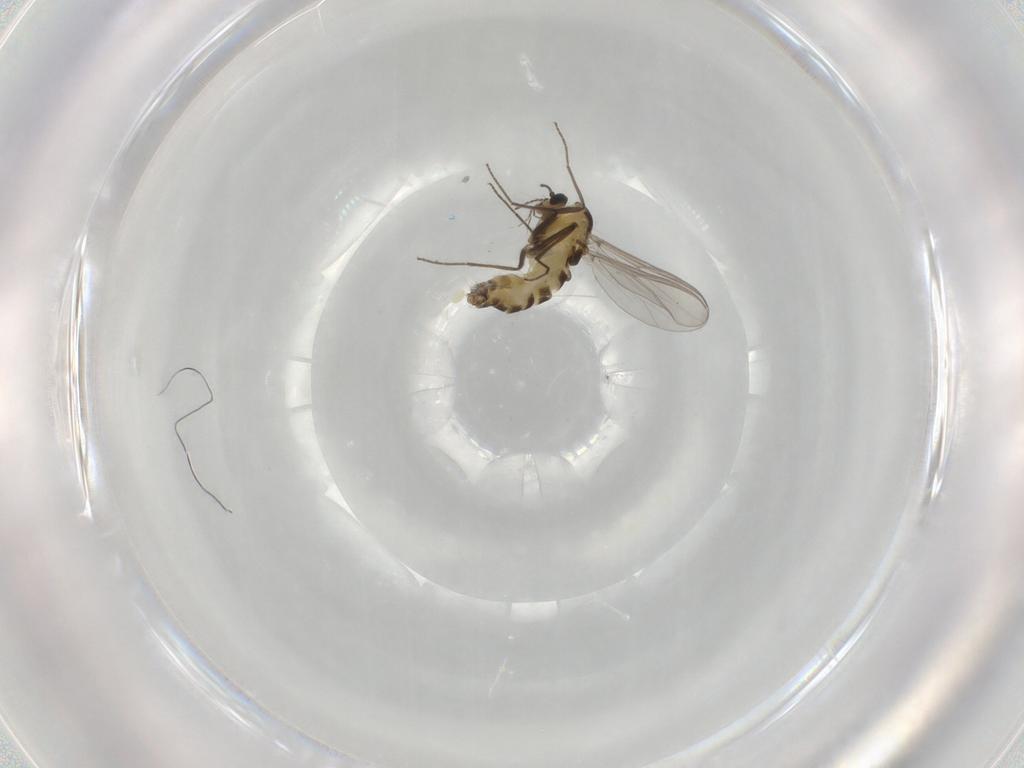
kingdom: Animalia
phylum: Arthropoda
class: Insecta
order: Diptera
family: Chironomidae
